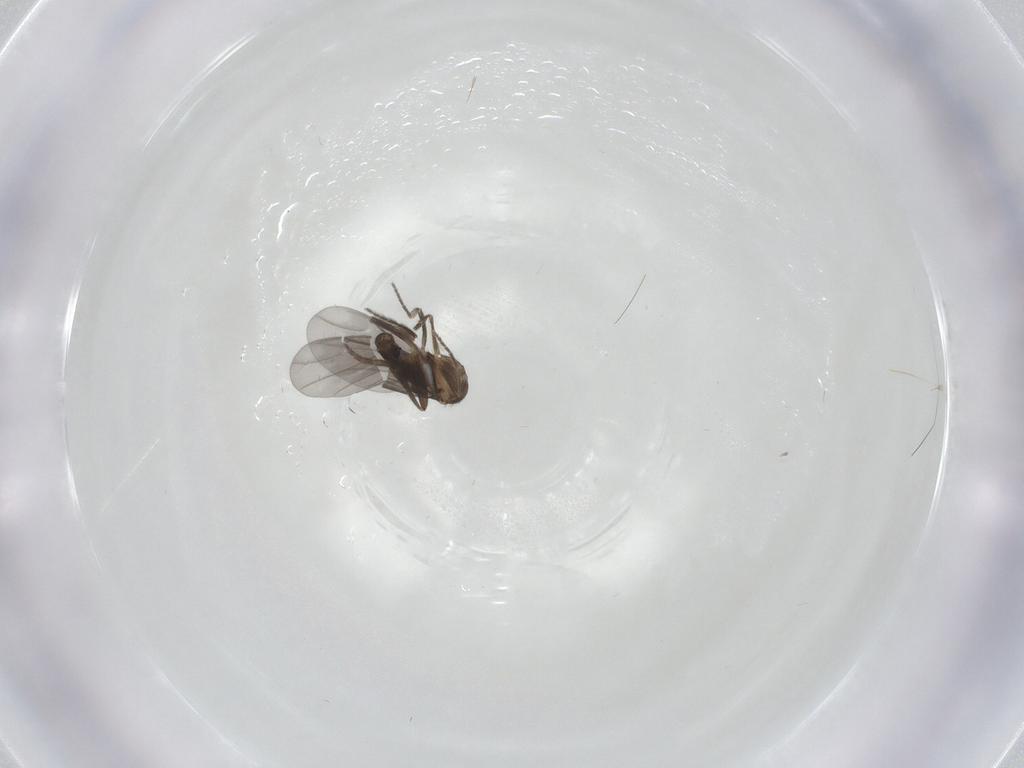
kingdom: Animalia
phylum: Arthropoda
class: Insecta
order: Diptera
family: Phoridae
